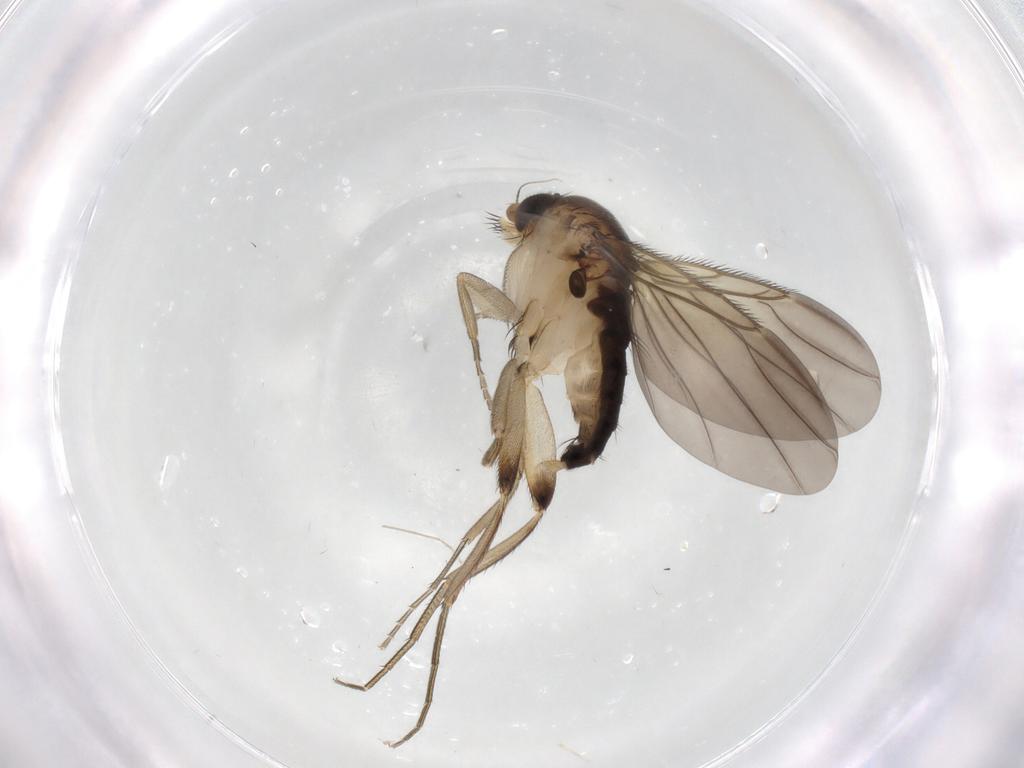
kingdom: Animalia
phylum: Arthropoda
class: Insecta
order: Diptera
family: Phoridae
